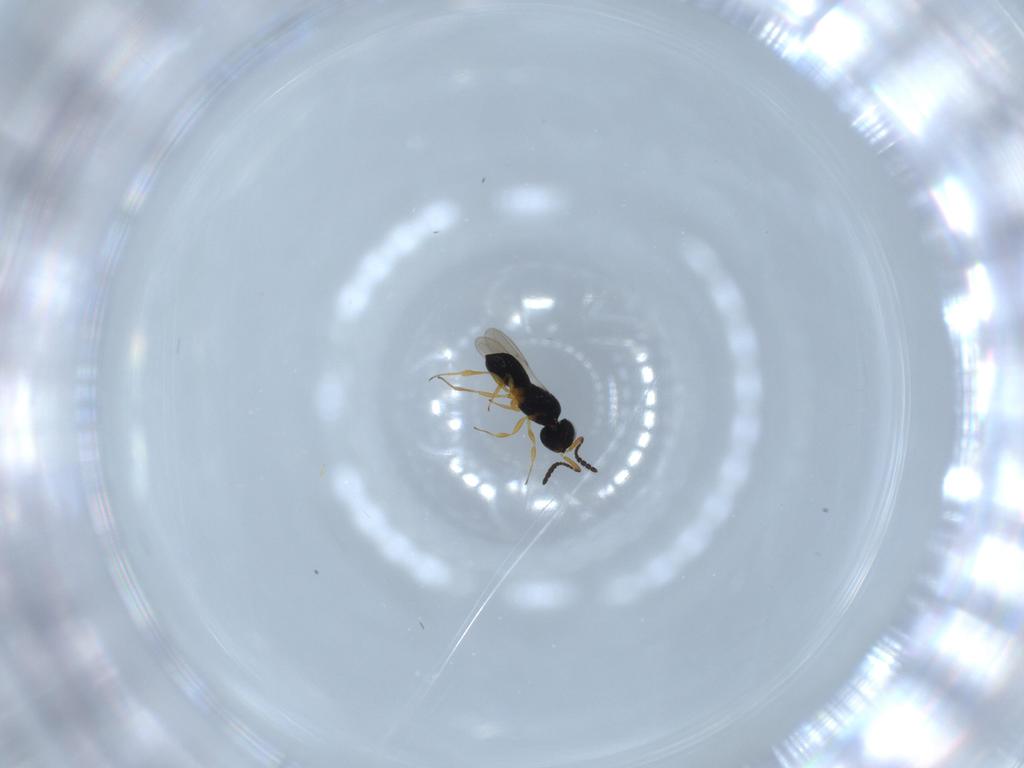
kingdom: Animalia
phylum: Arthropoda
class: Insecta
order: Hymenoptera
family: Scelionidae
